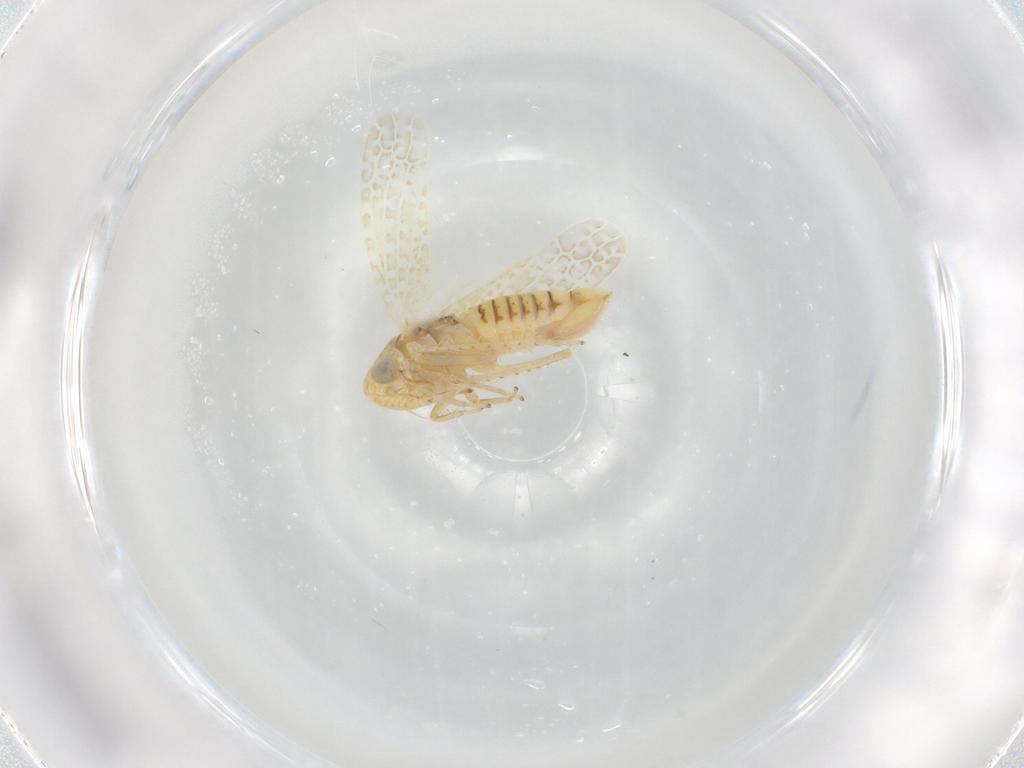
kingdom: Animalia
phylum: Arthropoda
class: Insecta
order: Hemiptera
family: Cicadellidae
